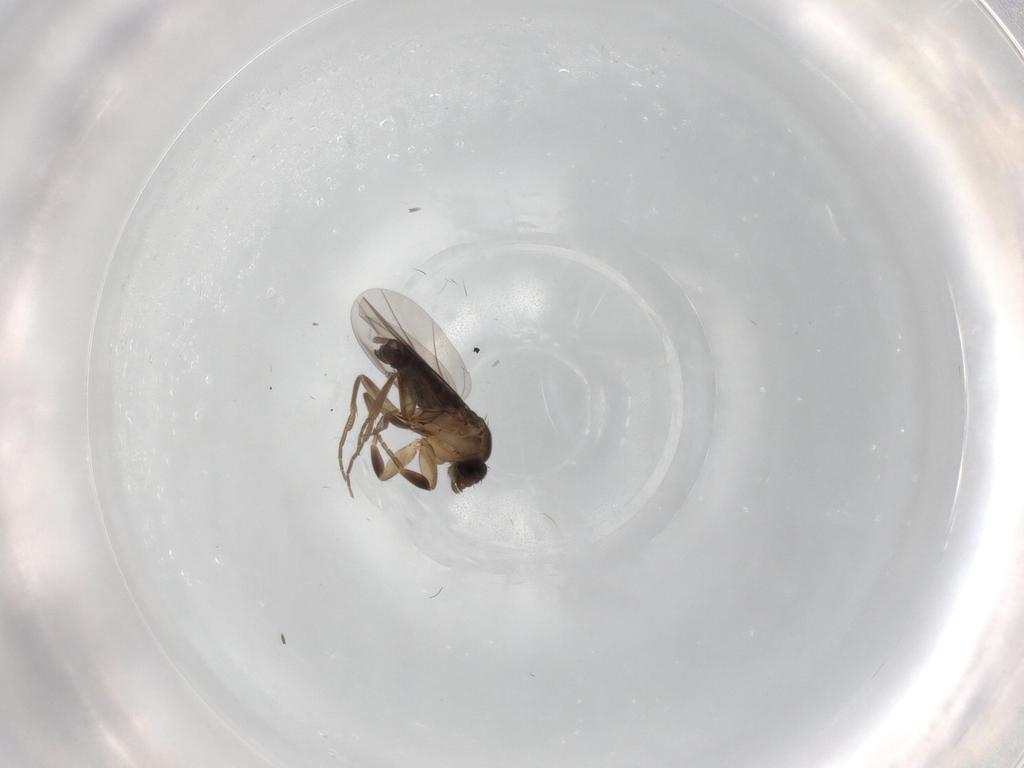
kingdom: Animalia
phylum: Arthropoda
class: Insecta
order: Diptera
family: Phoridae
